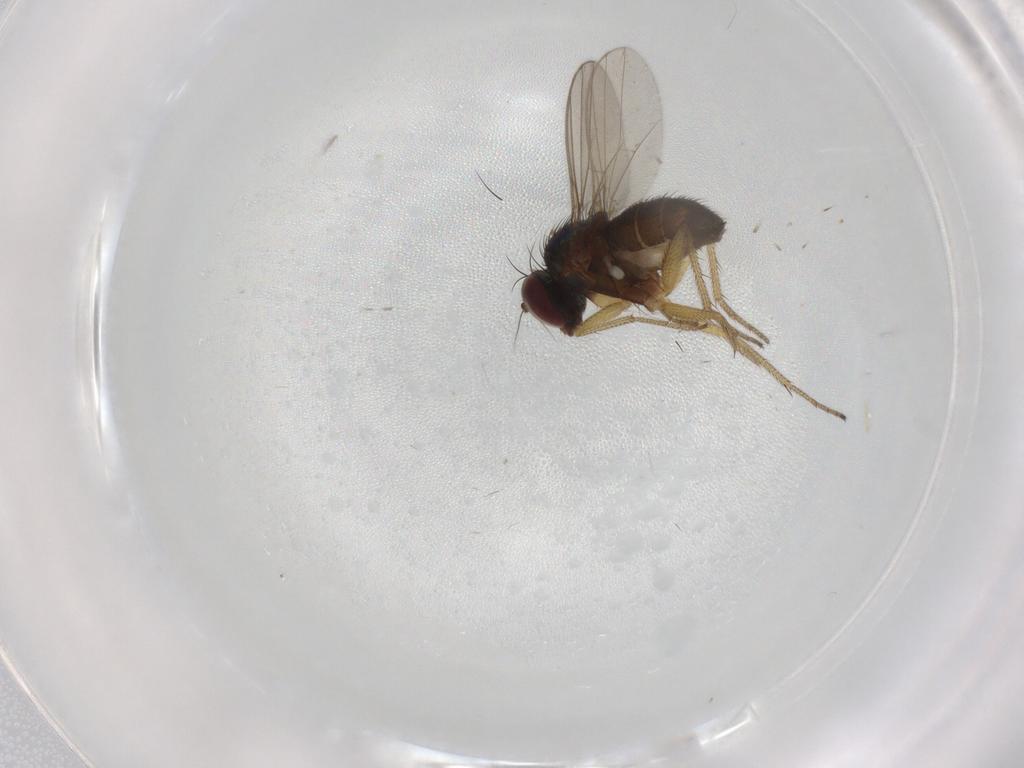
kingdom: Animalia
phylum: Arthropoda
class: Insecta
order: Diptera
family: Dolichopodidae
